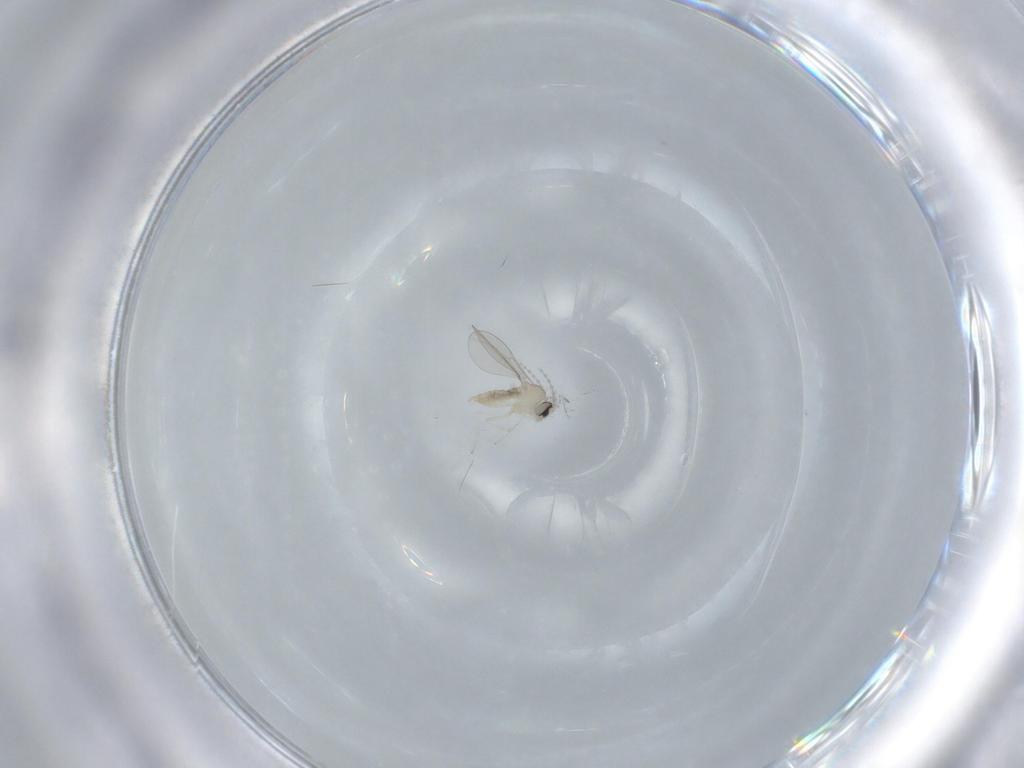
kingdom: Animalia
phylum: Arthropoda
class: Insecta
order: Diptera
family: Cecidomyiidae
